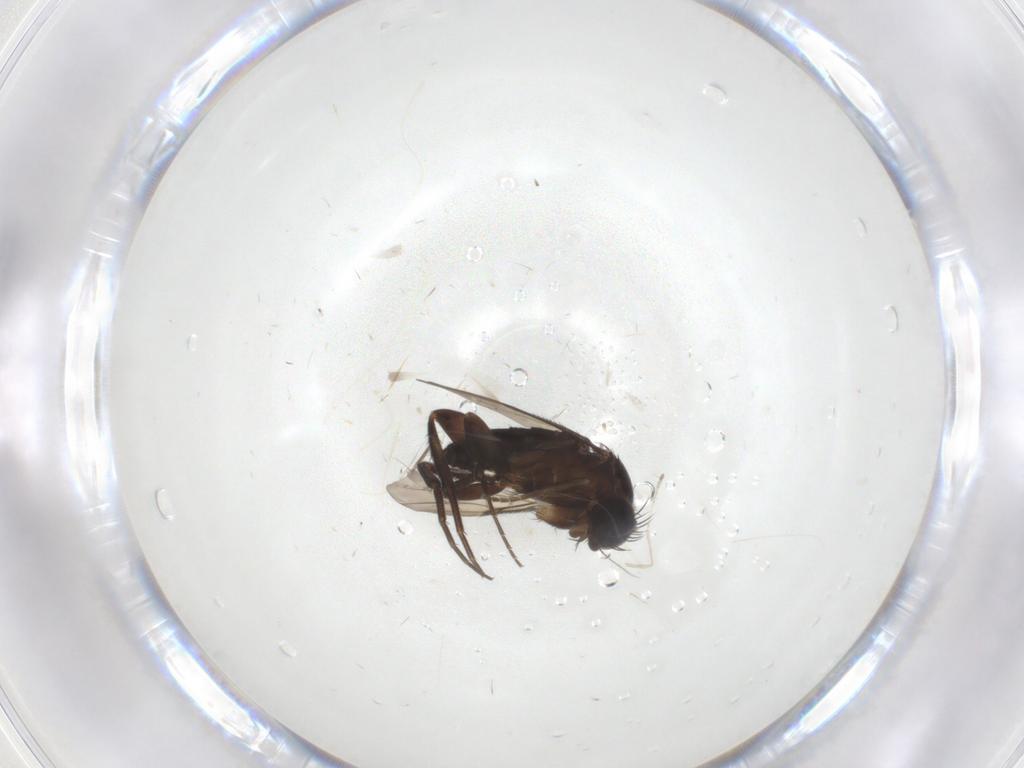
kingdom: Animalia
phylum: Arthropoda
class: Insecta
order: Diptera
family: Phoridae
